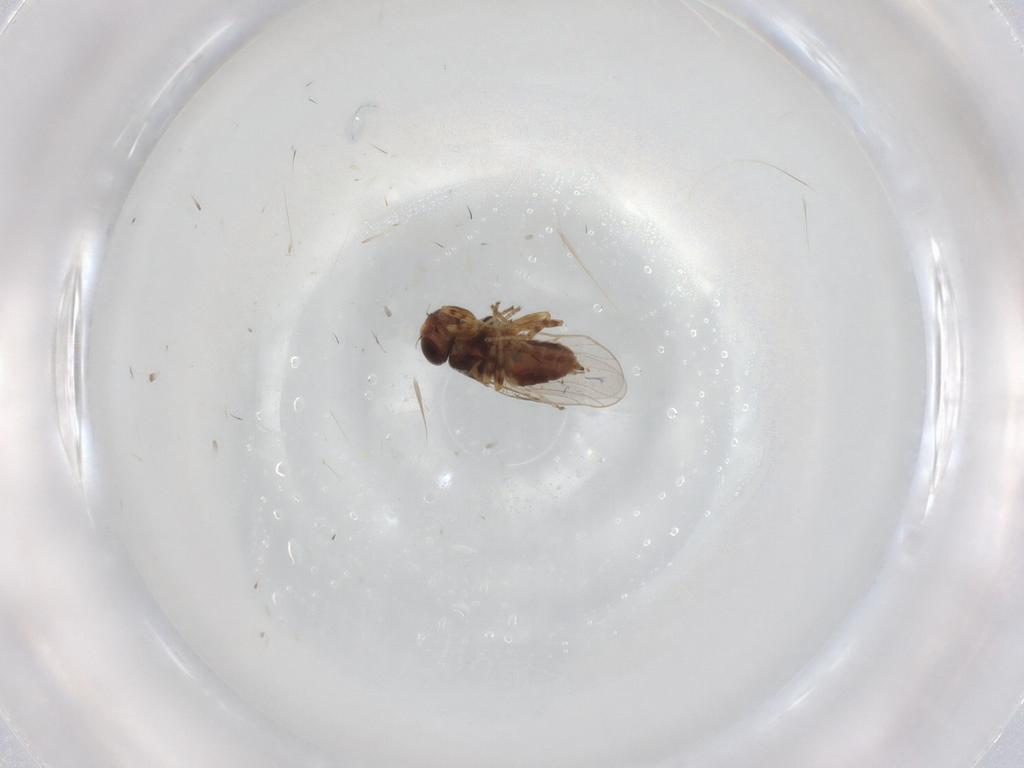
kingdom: Animalia
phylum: Arthropoda
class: Insecta
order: Diptera
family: Chloropidae
